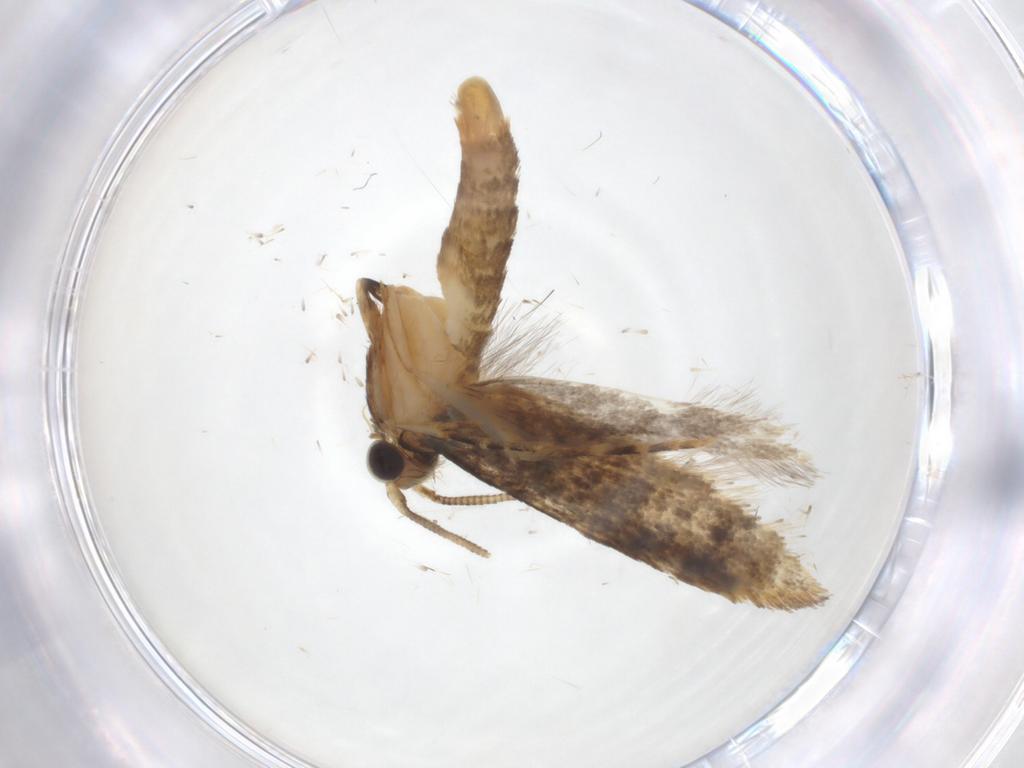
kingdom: Animalia
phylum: Arthropoda
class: Insecta
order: Lepidoptera
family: Tineidae
